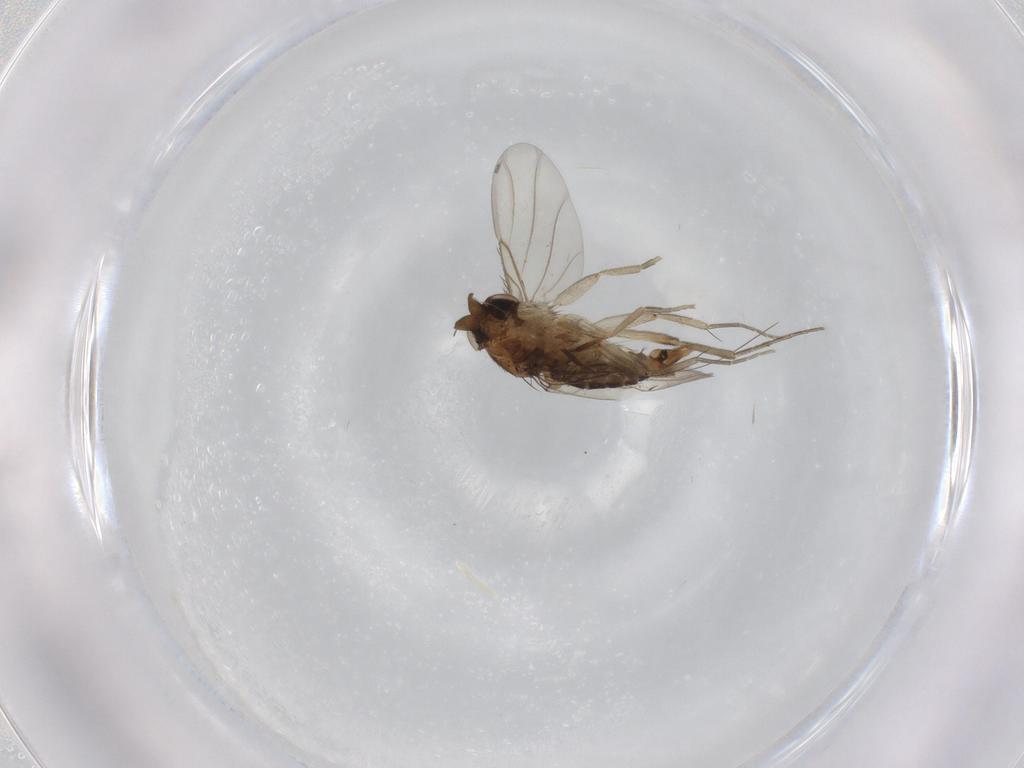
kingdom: Animalia
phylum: Arthropoda
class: Insecta
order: Diptera
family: Phoridae
